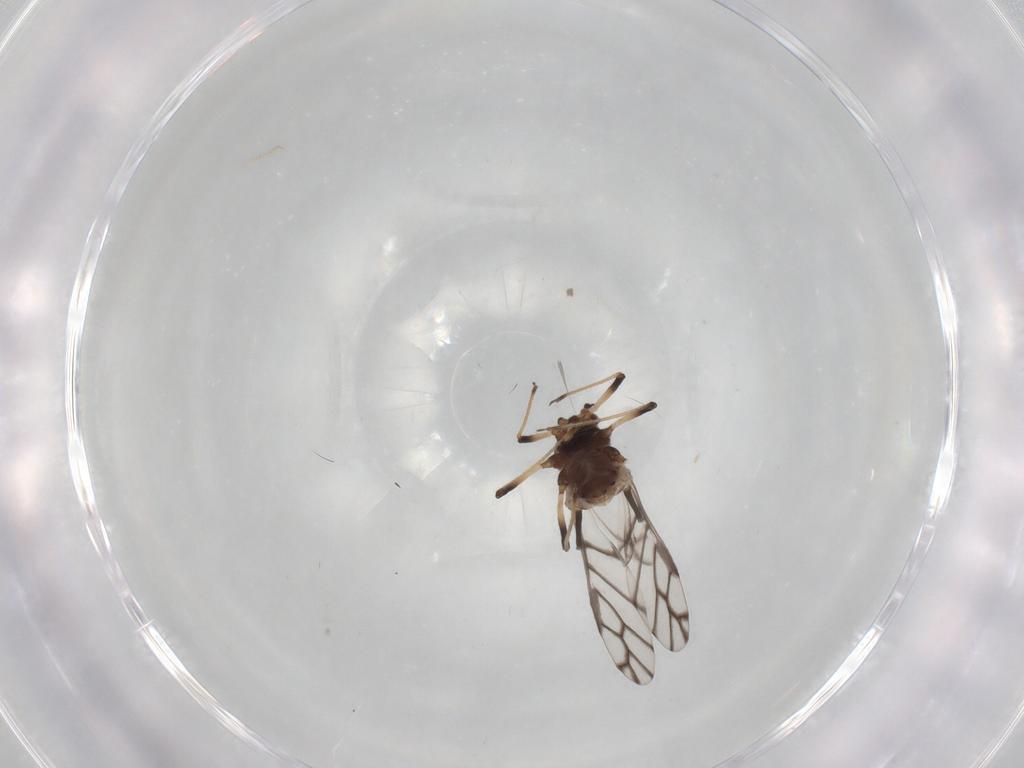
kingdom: Animalia
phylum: Arthropoda
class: Insecta
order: Hemiptera
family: Aphididae
